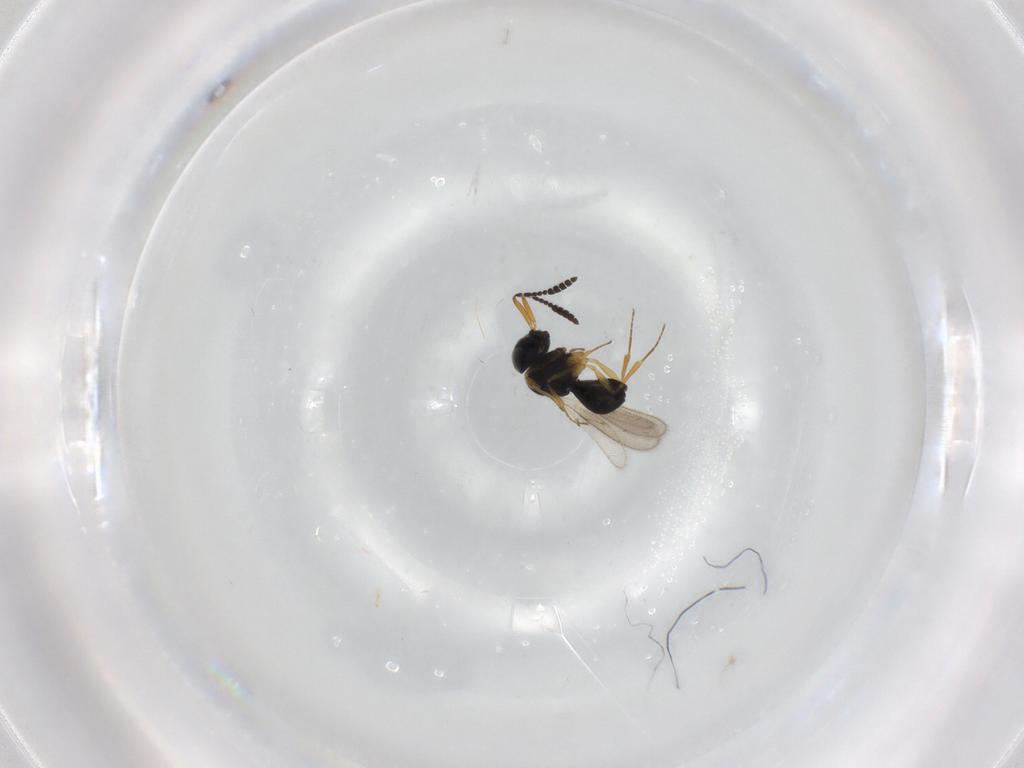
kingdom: Animalia
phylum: Arthropoda
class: Insecta
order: Hymenoptera
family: Scelionidae
